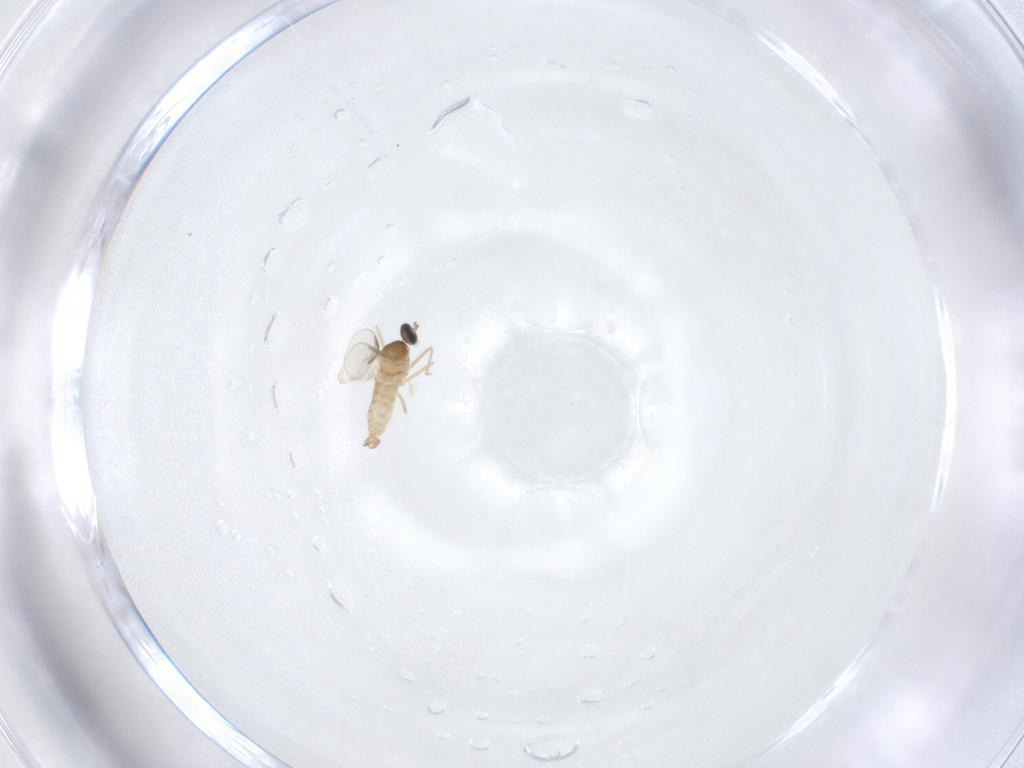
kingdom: Animalia
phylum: Arthropoda
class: Insecta
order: Diptera
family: Cecidomyiidae
